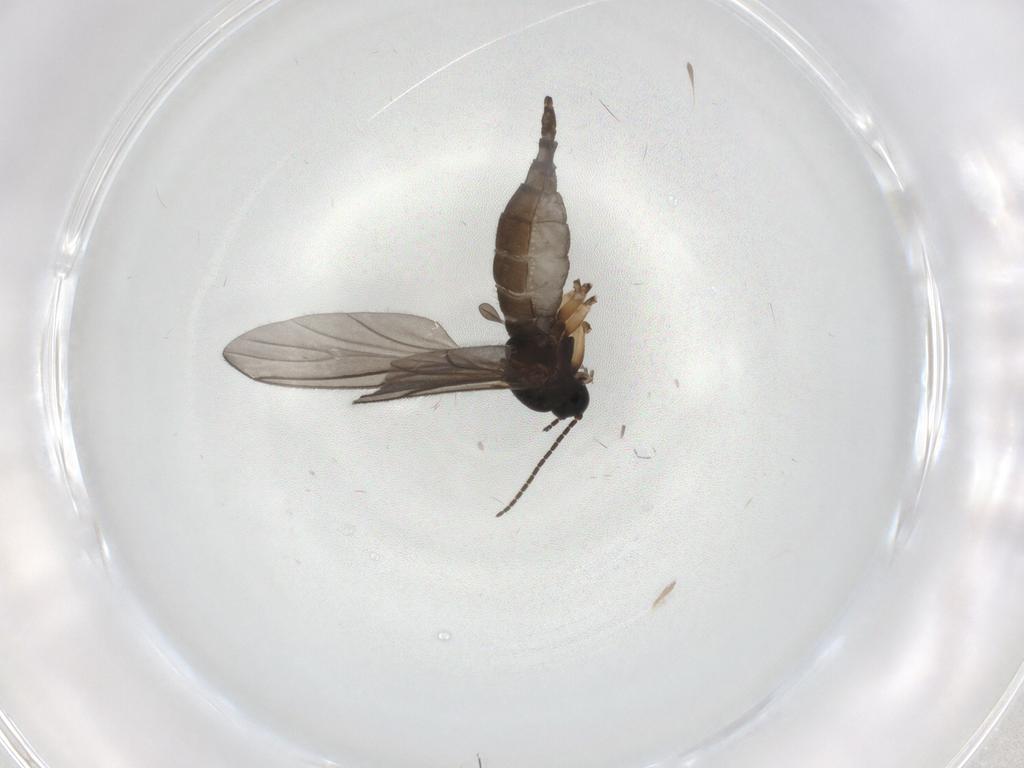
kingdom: Animalia
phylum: Arthropoda
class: Insecta
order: Diptera
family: Sciaridae
